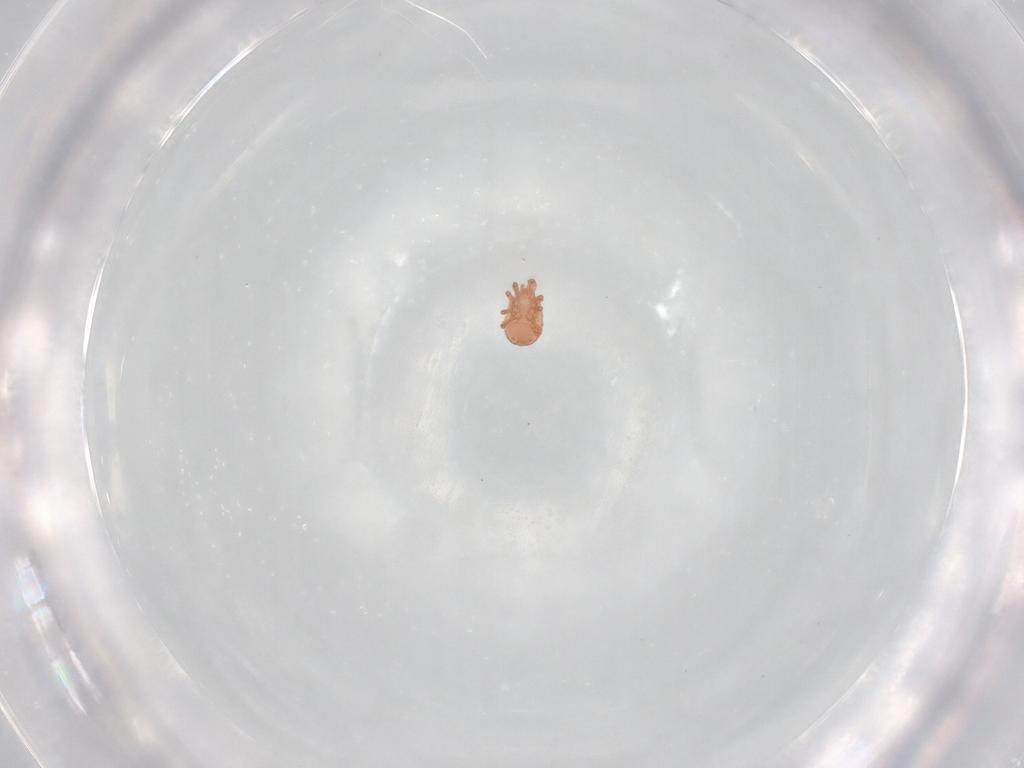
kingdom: Animalia
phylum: Arthropoda
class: Arachnida
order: Mesostigmata
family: Zerconidae
